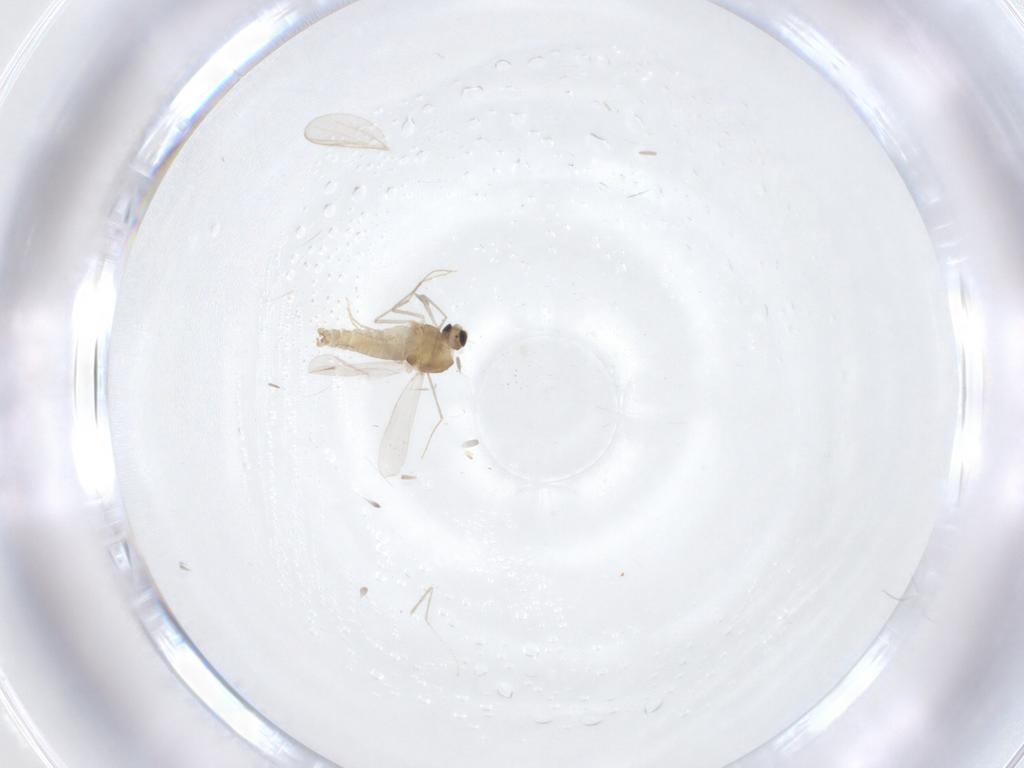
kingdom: Animalia
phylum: Arthropoda
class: Insecta
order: Diptera
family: Chironomidae
